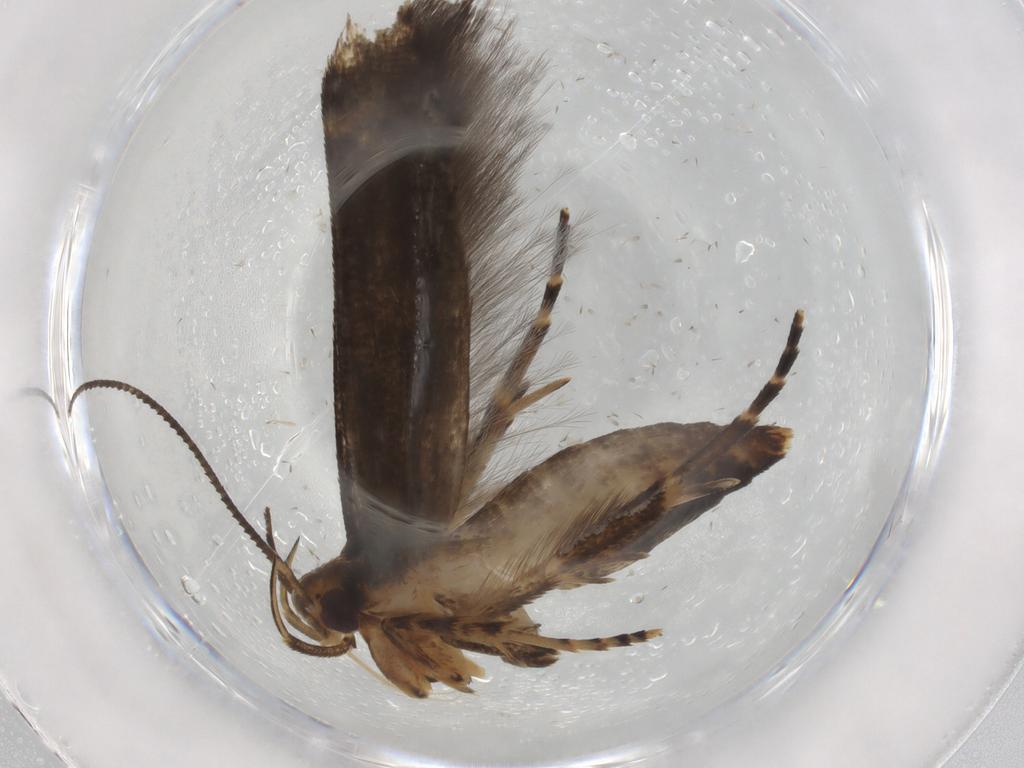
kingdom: Animalia
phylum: Arthropoda
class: Insecta
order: Lepidoptera
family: Cosmopterigidae
